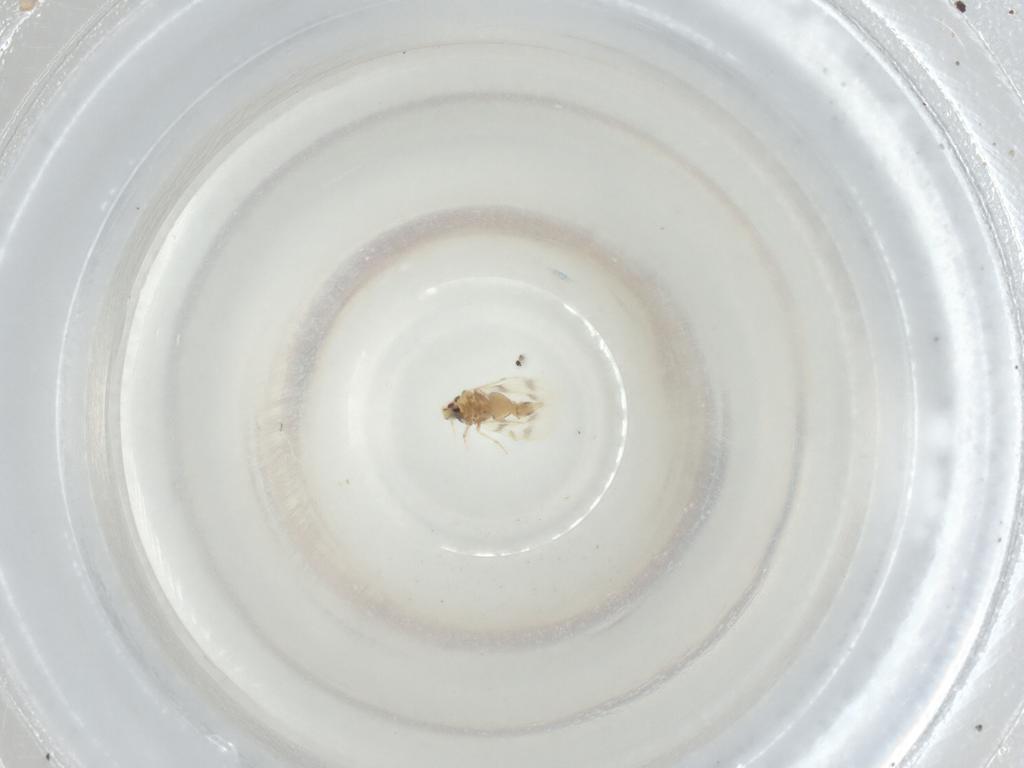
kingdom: Animalia
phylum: Arthropoda
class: Insecta
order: Hemiptera
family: Aleyrodidae
